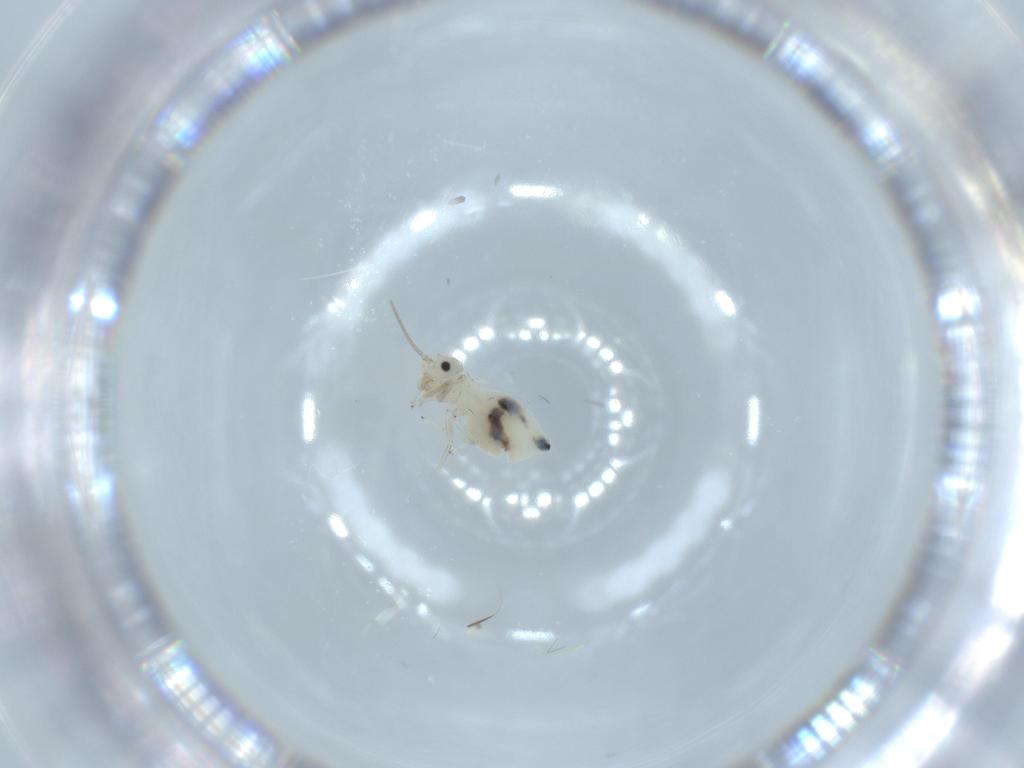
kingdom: Animalia
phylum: Arthropoda
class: Insecta
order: Psocodea
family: Caeciliusidae
